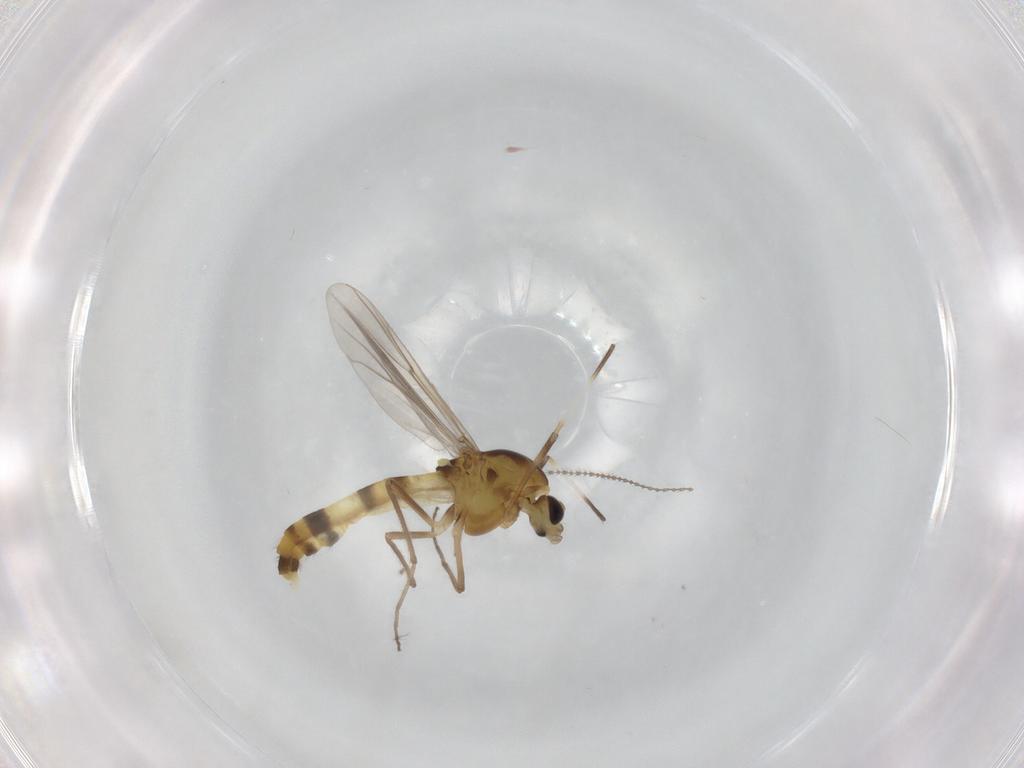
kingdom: Animalia
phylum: Arthropoda
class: Insecta
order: Diptera
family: Chironomidae
